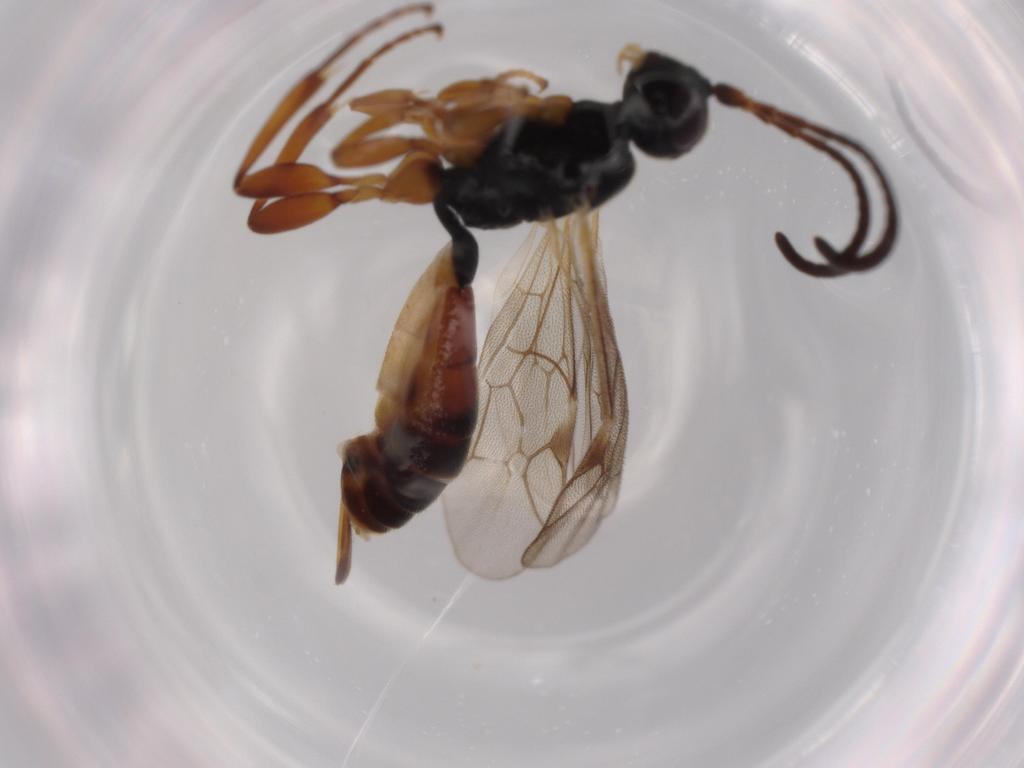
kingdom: Animalia
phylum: Arthropoda
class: Insecta
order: Hymenoptera
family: Ichneumonidae
